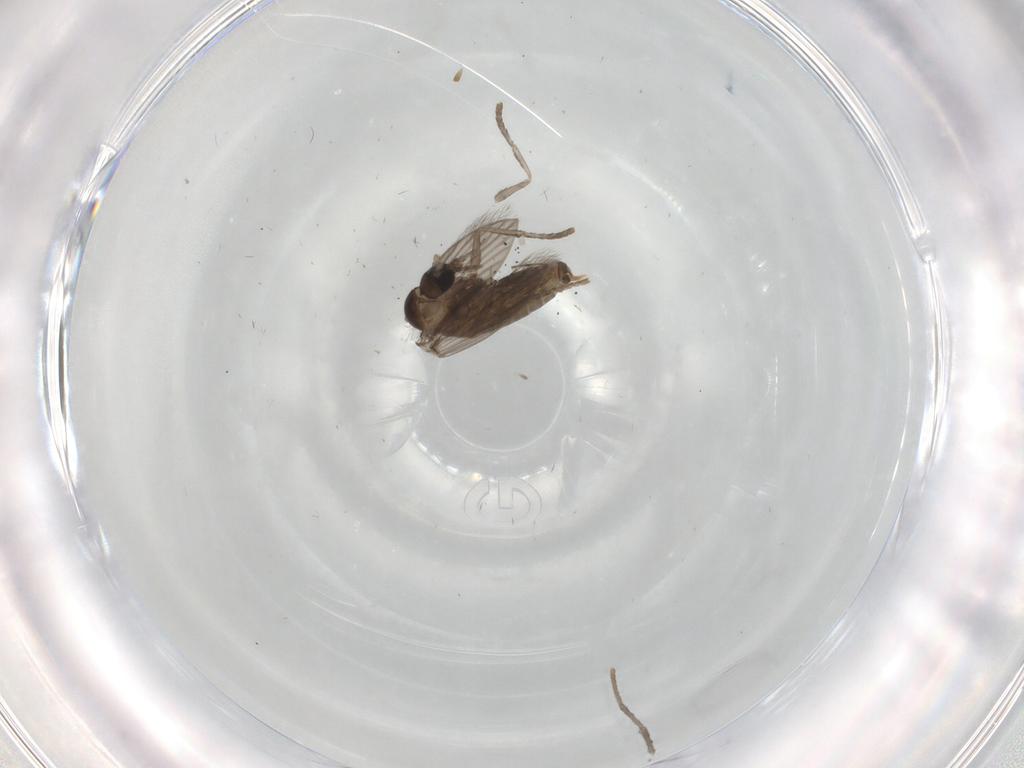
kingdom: Animalia
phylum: Arthropoda
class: Insecta
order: Diptera
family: Psychodidae
